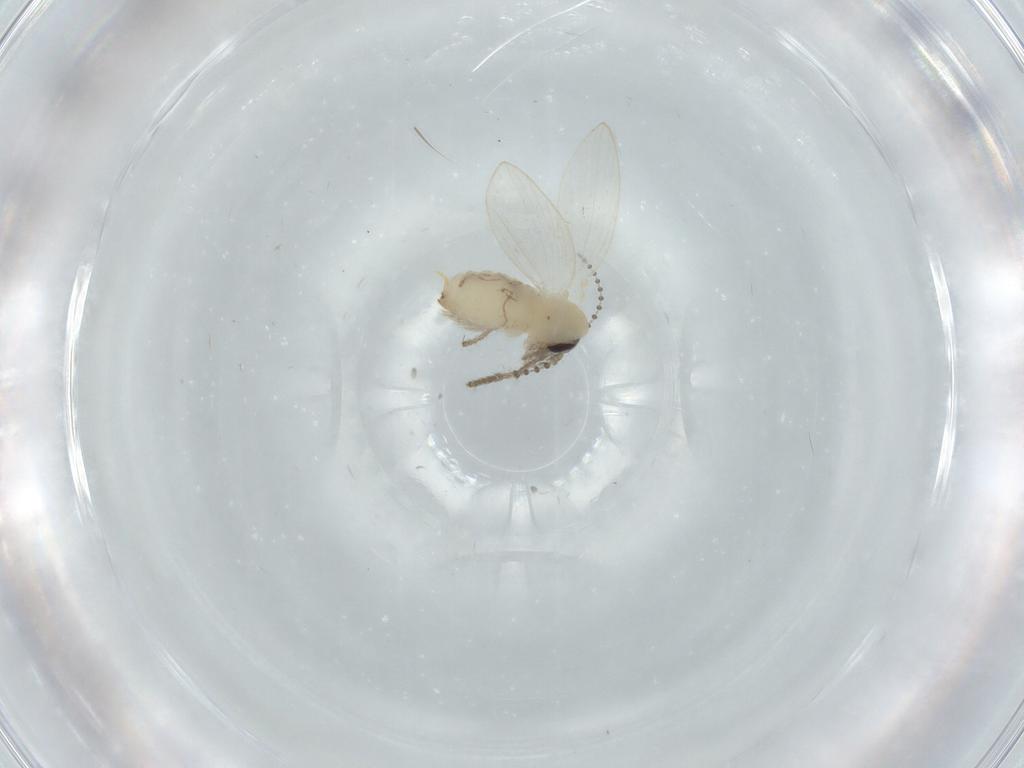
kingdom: Animalia
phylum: Arthropoda
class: Insecta
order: Diptera
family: Psychodidae
